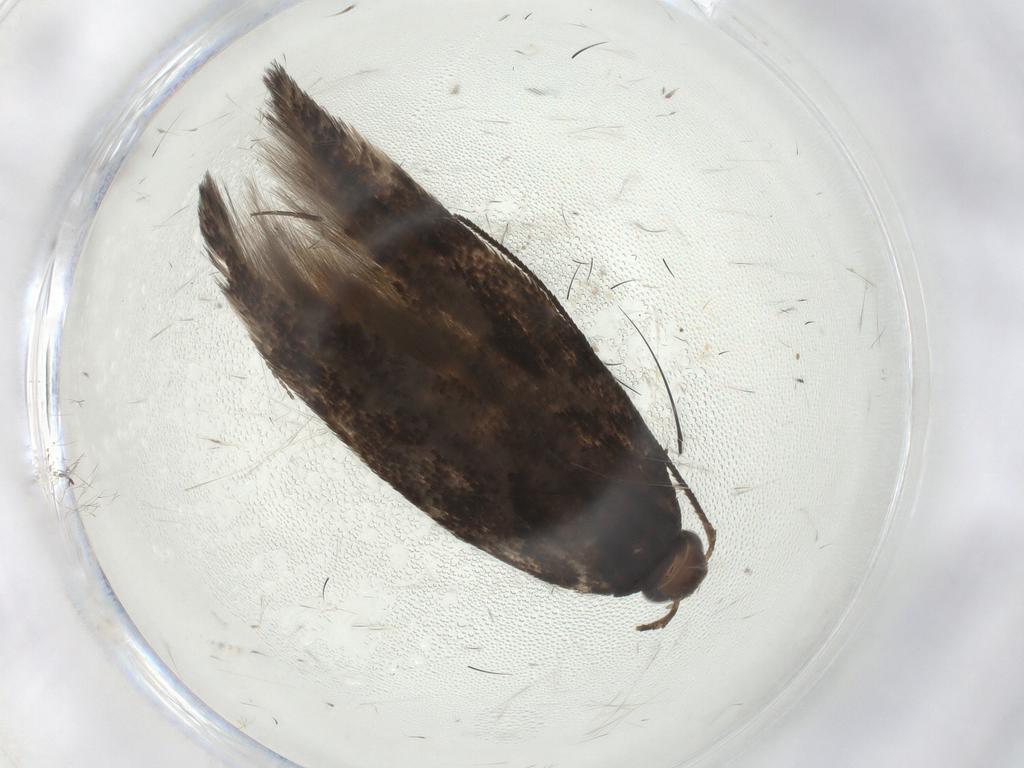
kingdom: Animalia
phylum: Arthropoda
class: Insecta
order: Lepidoptera
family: Gelechiidae
